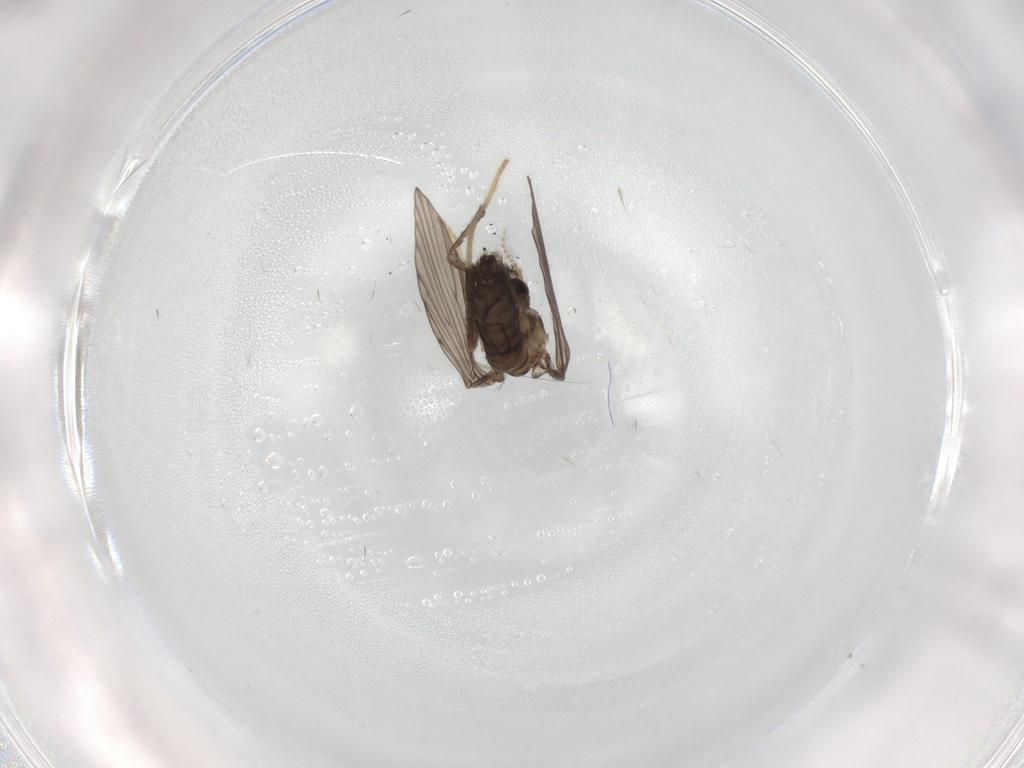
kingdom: Animalia
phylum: Arthropoda
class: Insecta
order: Diptera
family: Psychodidae
